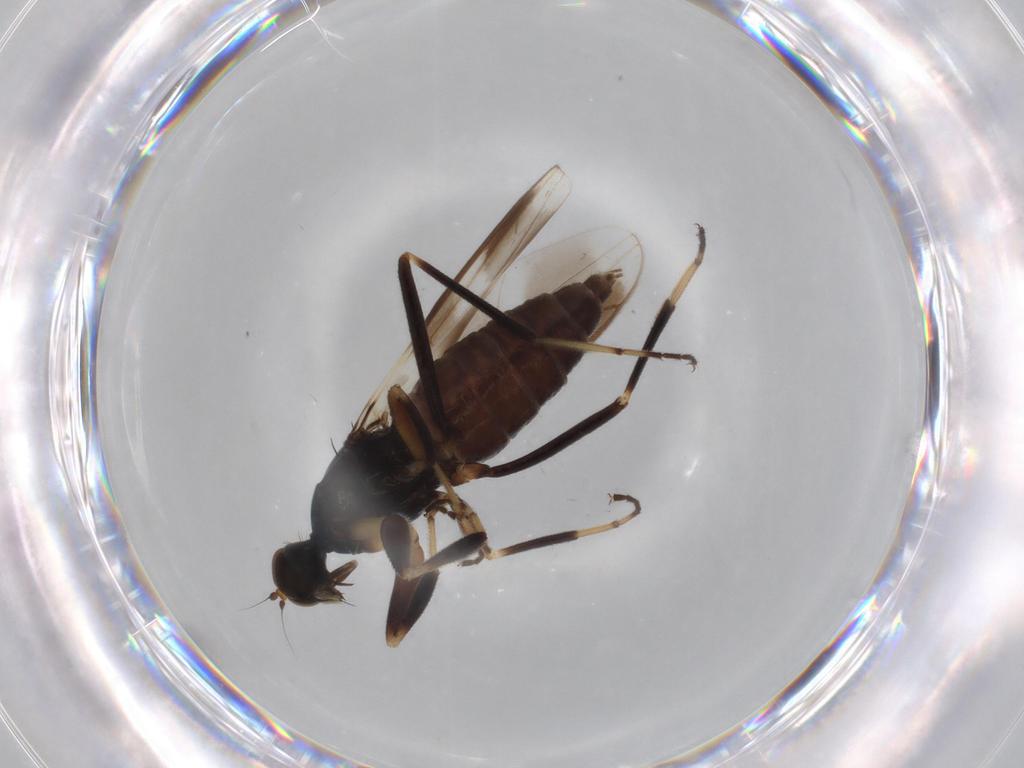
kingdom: Animalia
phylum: Arthropoda
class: Insecta
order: Diptera
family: Hybotidae
